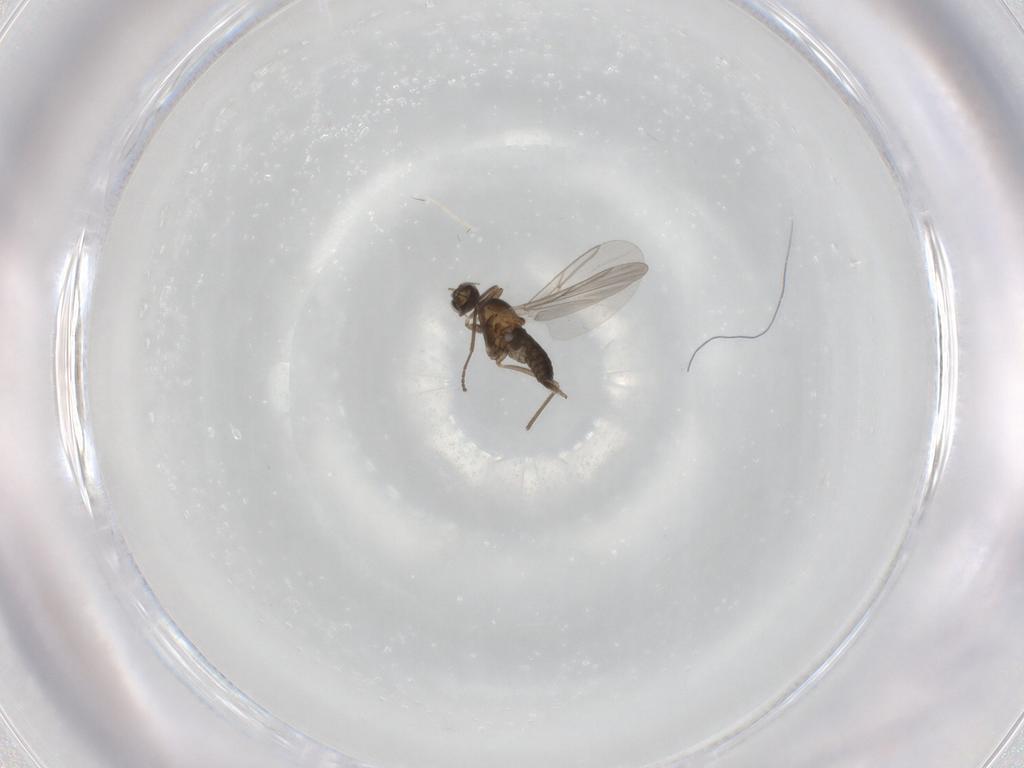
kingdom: Animalia
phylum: Arthropoda
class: Insecta
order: Diptera
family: Cecidomyiidae
